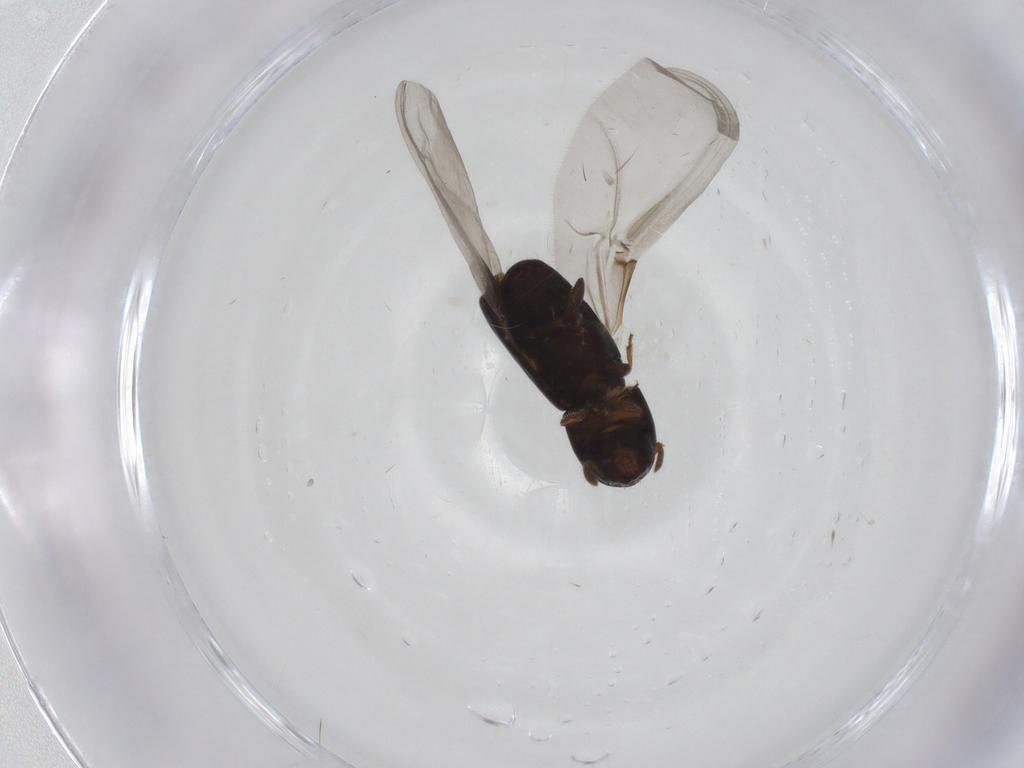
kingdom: Animalia
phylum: Arthropoda
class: Insecta
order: Coleoptera
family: Curculionidae
